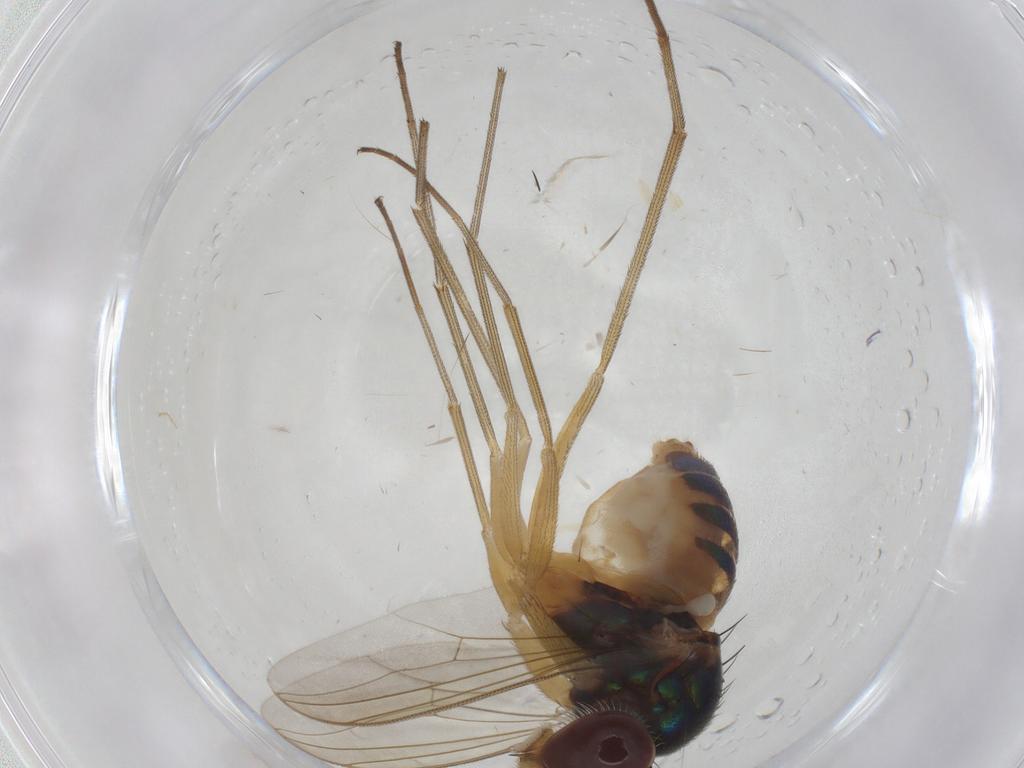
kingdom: Animalia
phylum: Arthropoda
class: Insecta
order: Diptera
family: Dolichopodidae
